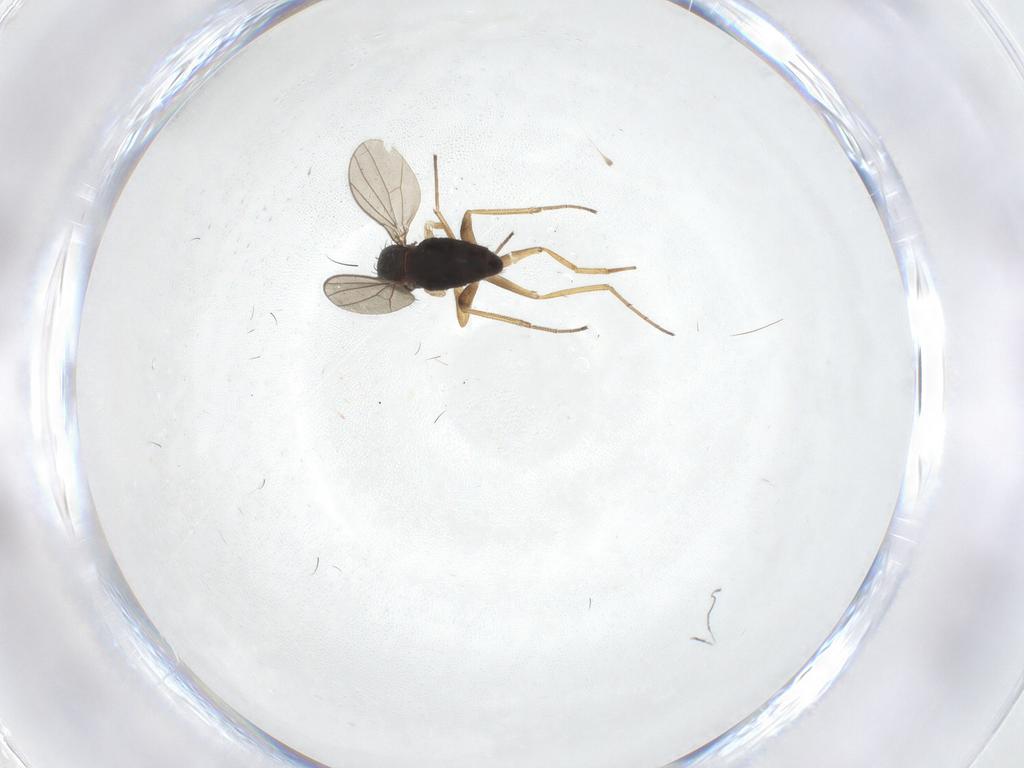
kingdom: Animalia
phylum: Arthropoda
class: Insecta
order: Diptera
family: Dolichopodidae
